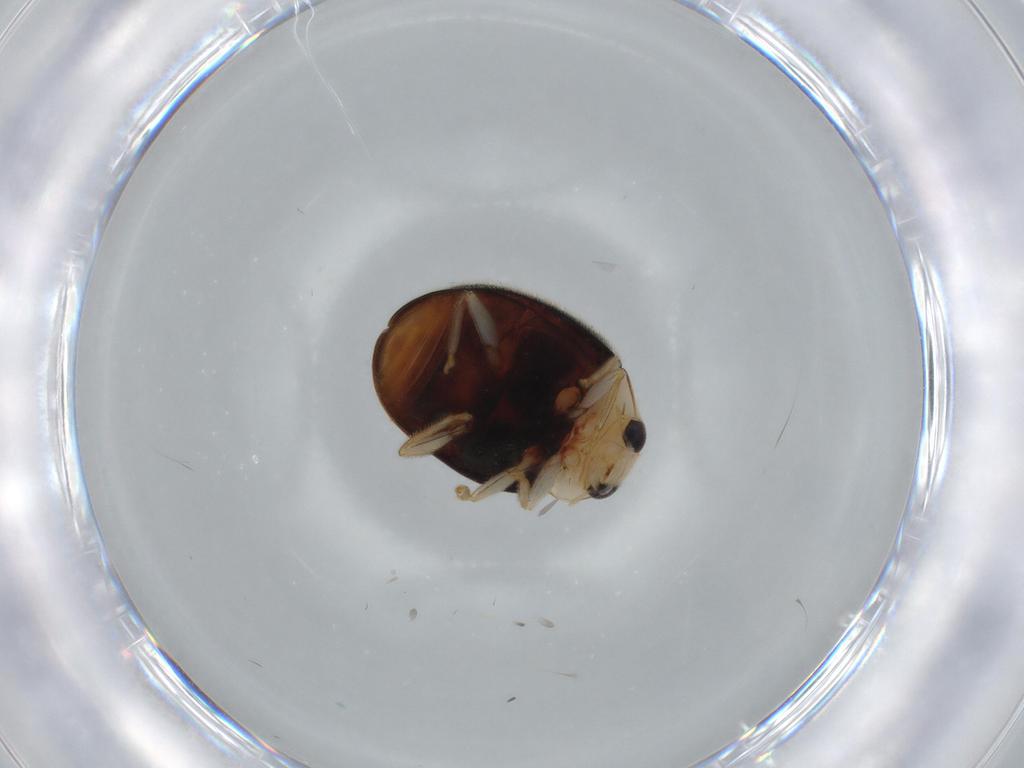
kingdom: Animalia
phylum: Arthropoda
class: Insecta
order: Coleoptera
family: Coccinellidae
